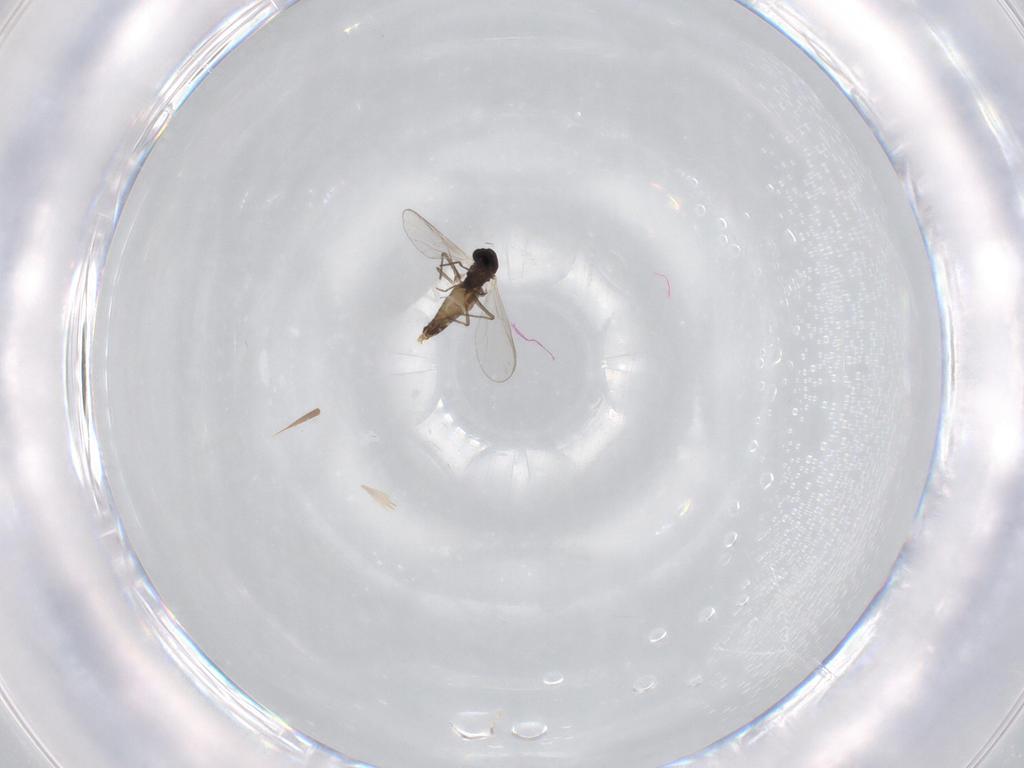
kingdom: Animalia
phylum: Arthropoda
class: Insecta
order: Diptera
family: Chironomidae
